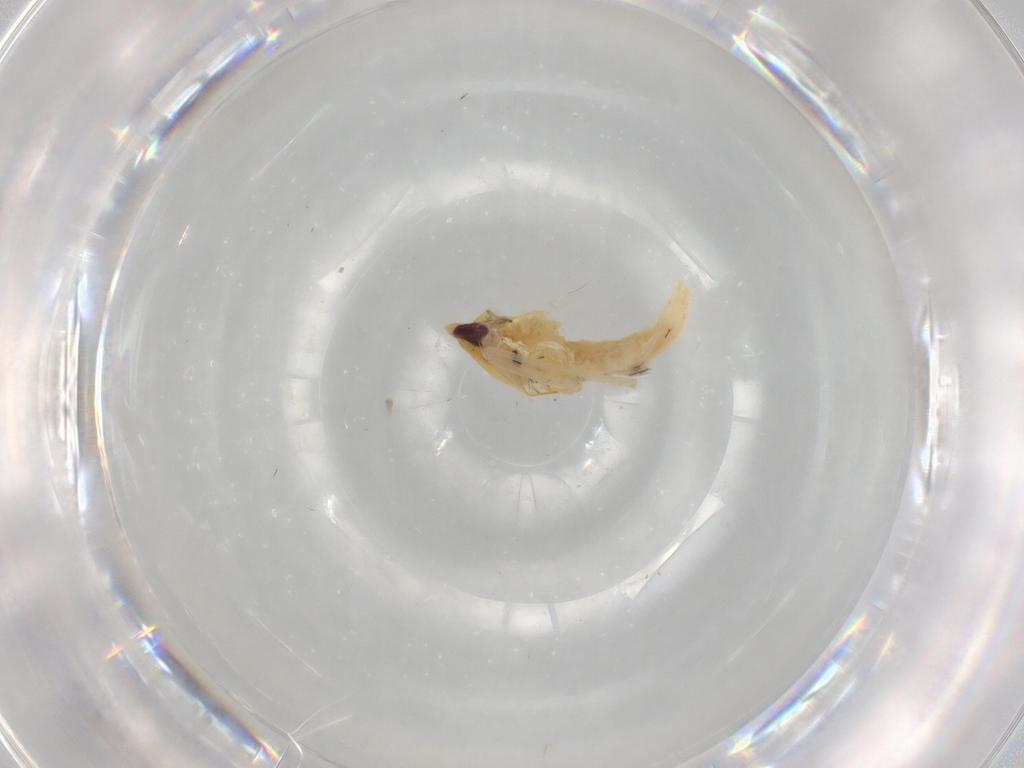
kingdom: Animalia
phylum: Arthropoda
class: Insecta
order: Hemiptera
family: Cicadellidae
